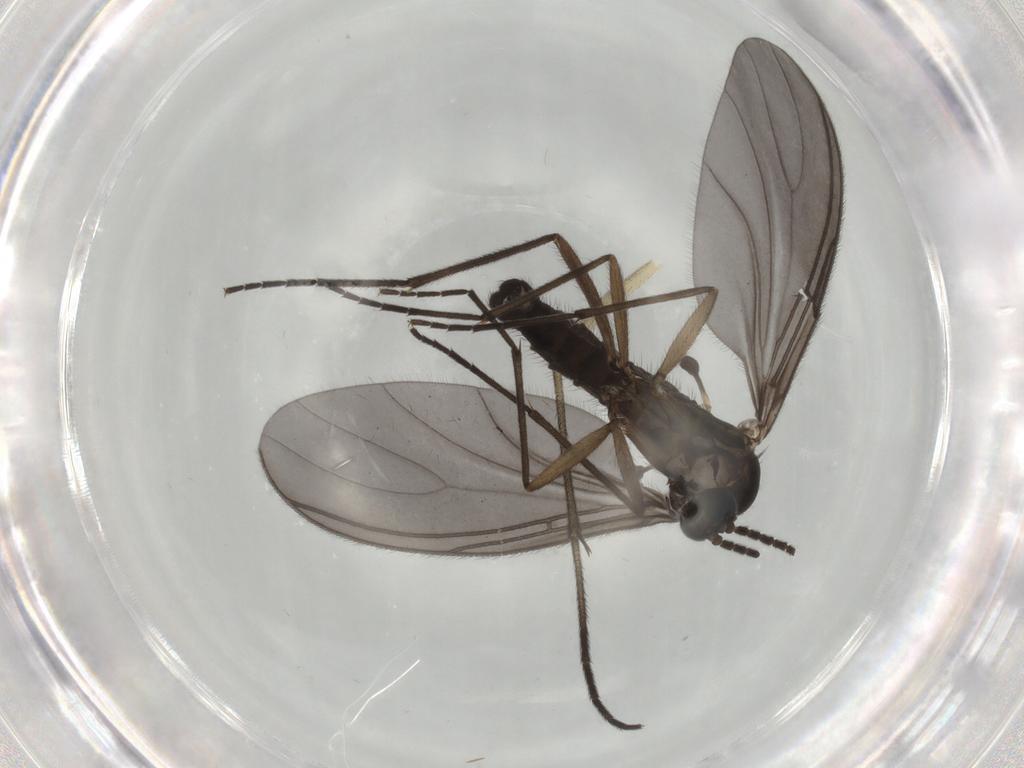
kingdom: Animalia
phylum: Arthropoda
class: Insecta
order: Diptera
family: Sciaridae
